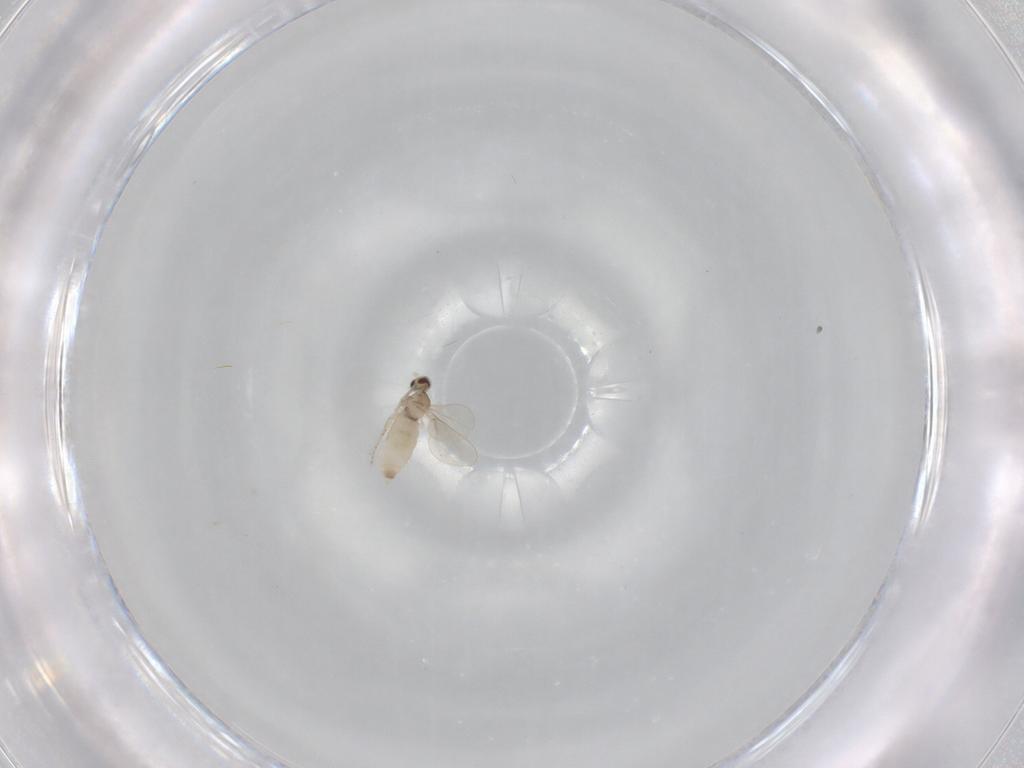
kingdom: Animalia
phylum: Arthropoda
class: Insecta
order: Diptera
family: Cecidomyiidae
